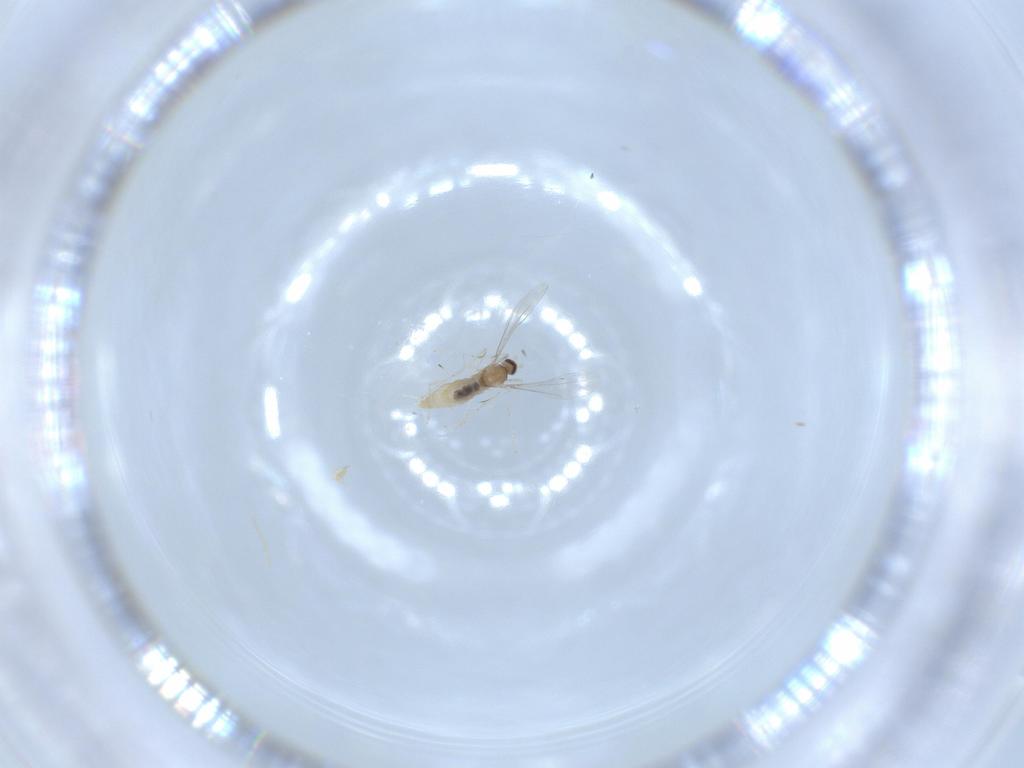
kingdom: Animalia
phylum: Arthropoda
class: Insecta
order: Diptera
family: Cecidomyiidae
